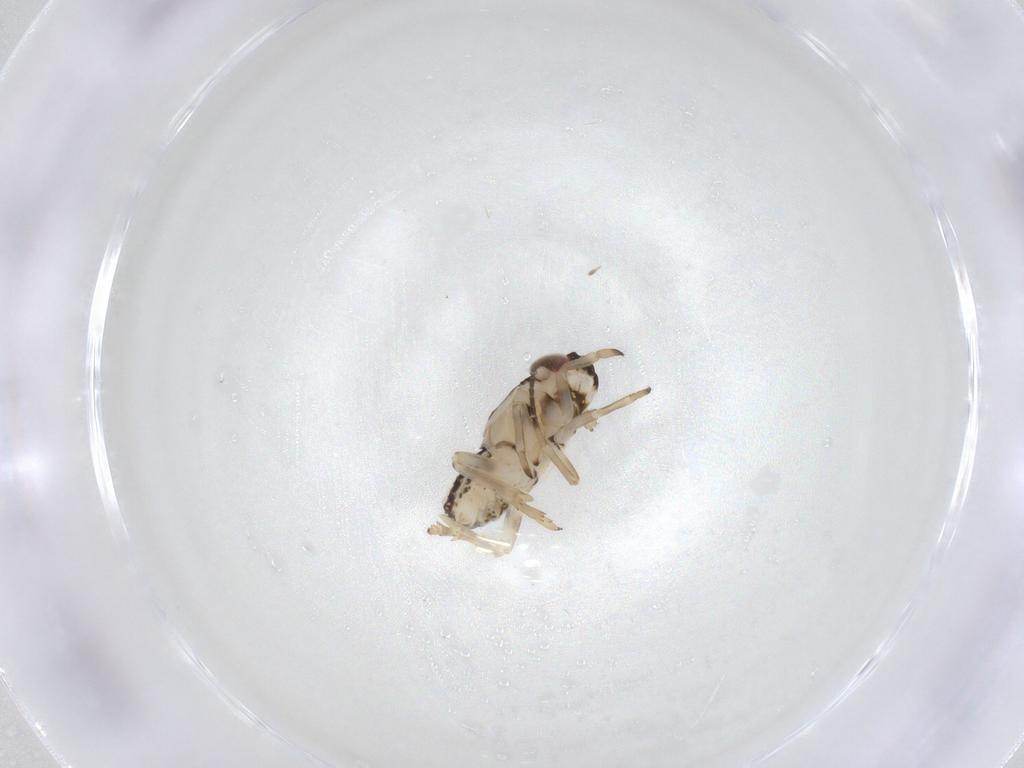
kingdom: Animalia
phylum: Arthropoda
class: Insecta
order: Hemiptera
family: Delphacidae
